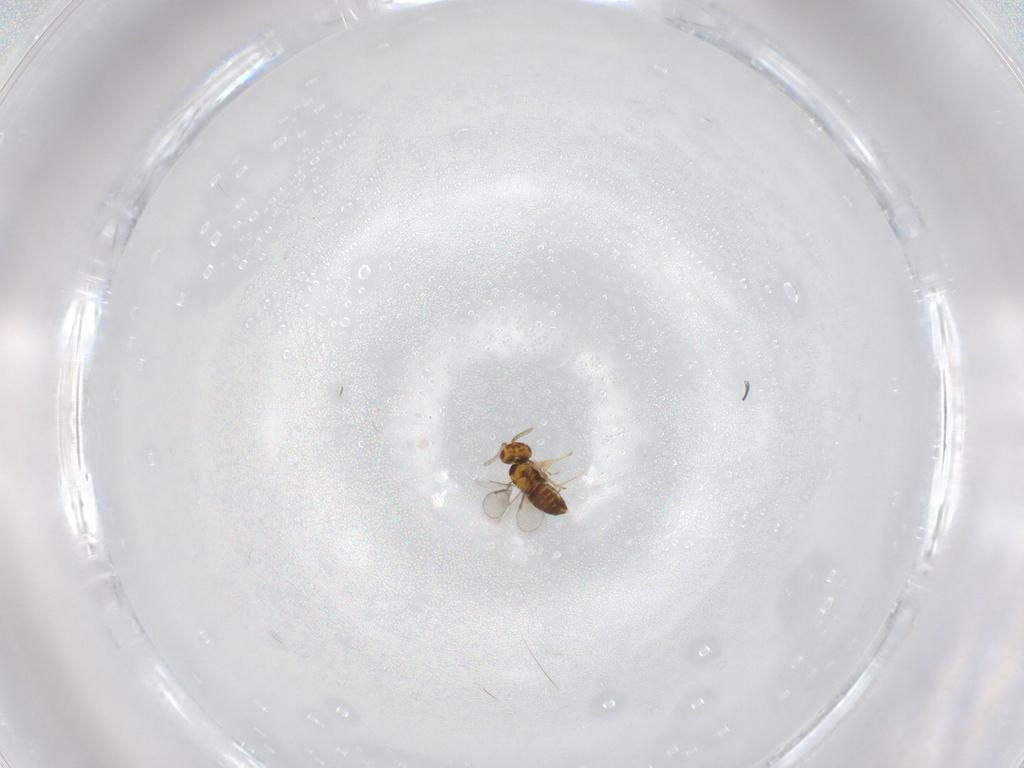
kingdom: Animalia
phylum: Arthropoda
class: Insecta
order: Hymenoptera
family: Aphelinidae
